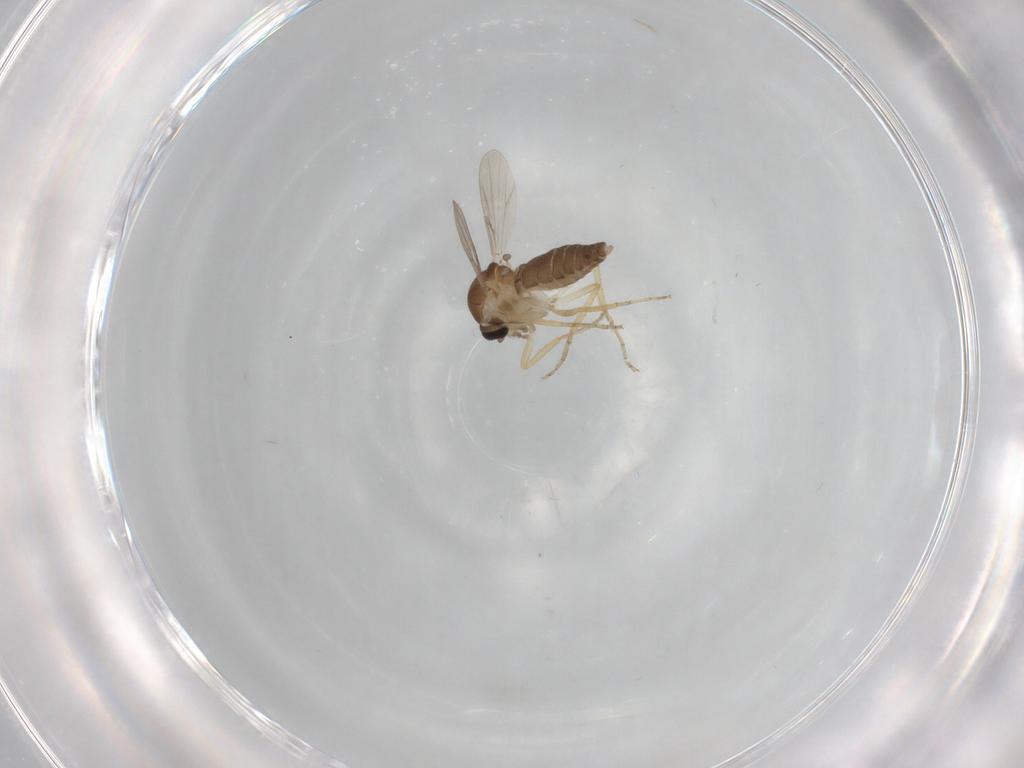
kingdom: Animalia
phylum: Arthropoda
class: Insecta
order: Diptera
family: Ceratopogonidae
